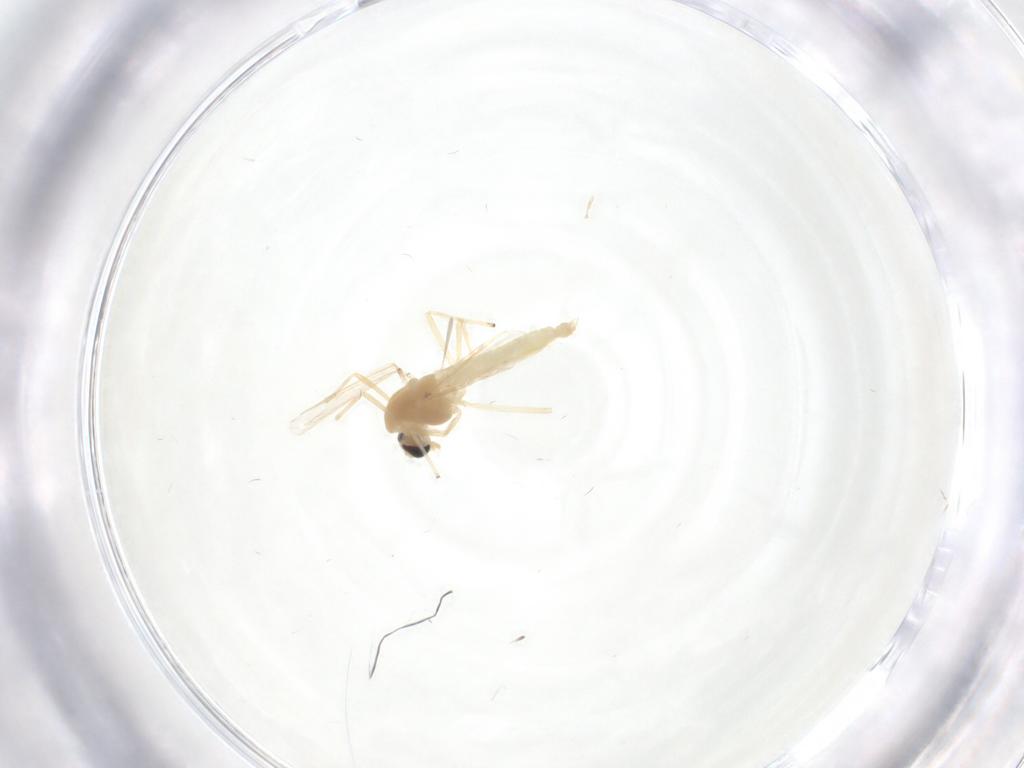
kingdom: Animalia
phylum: Arthropoda
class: Insecta
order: Diptera
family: Chironomidae
